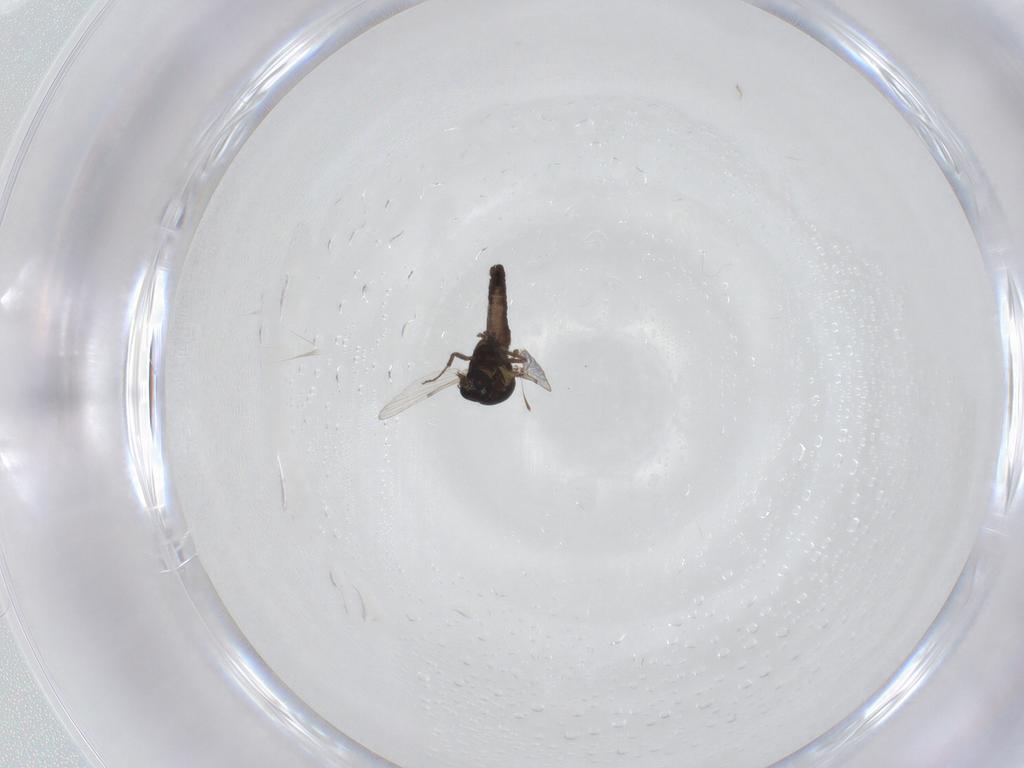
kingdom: Animalia
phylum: Arthropoda
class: Insecta
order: Diptera
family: Ceratopogonidae
